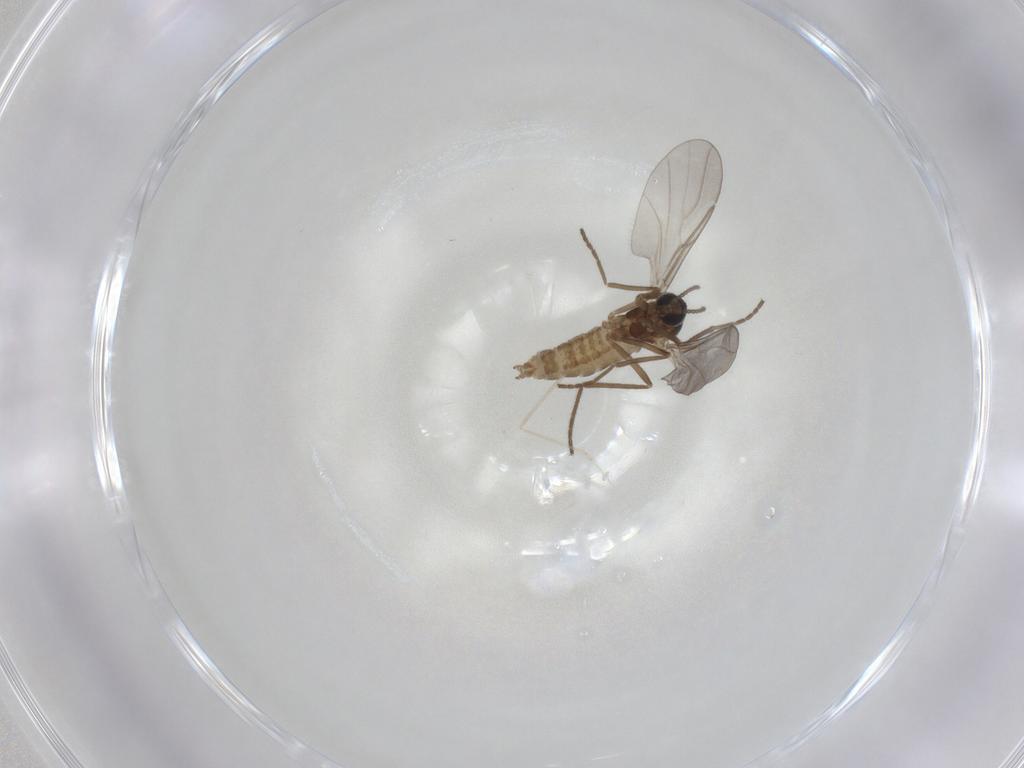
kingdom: Animalia
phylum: Arthropoda
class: Insecta
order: Diptera
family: Cecidomyiidae
